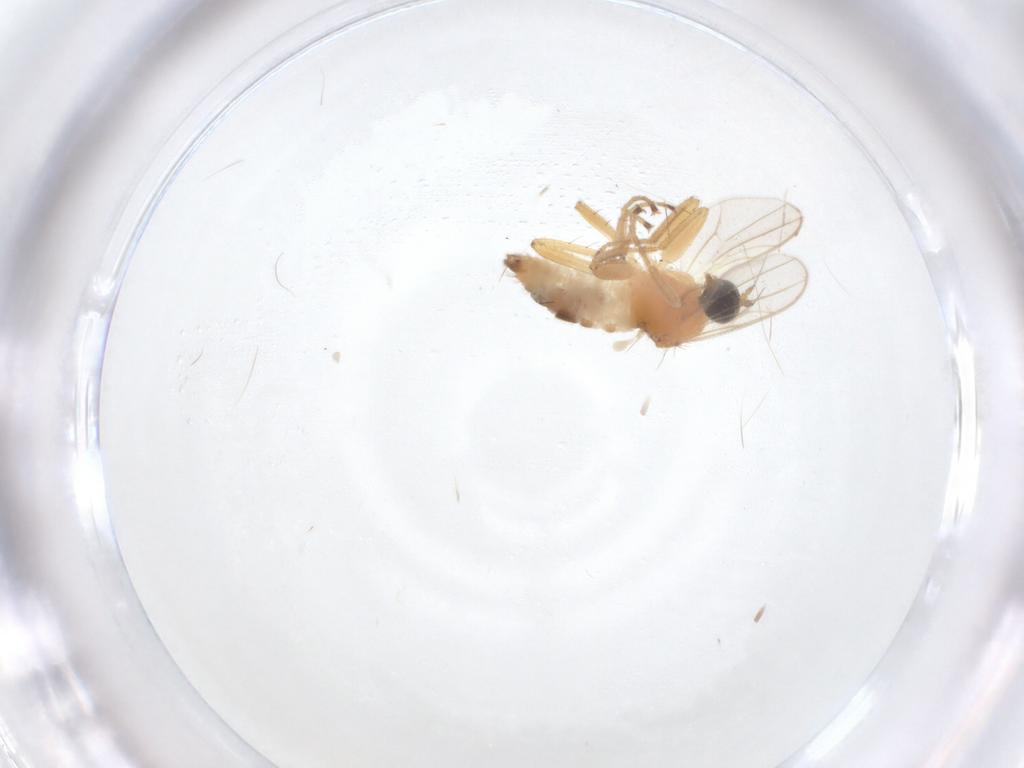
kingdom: Animalia
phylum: Arthropoda
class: Insecta
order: Diptera
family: Hybotidae
